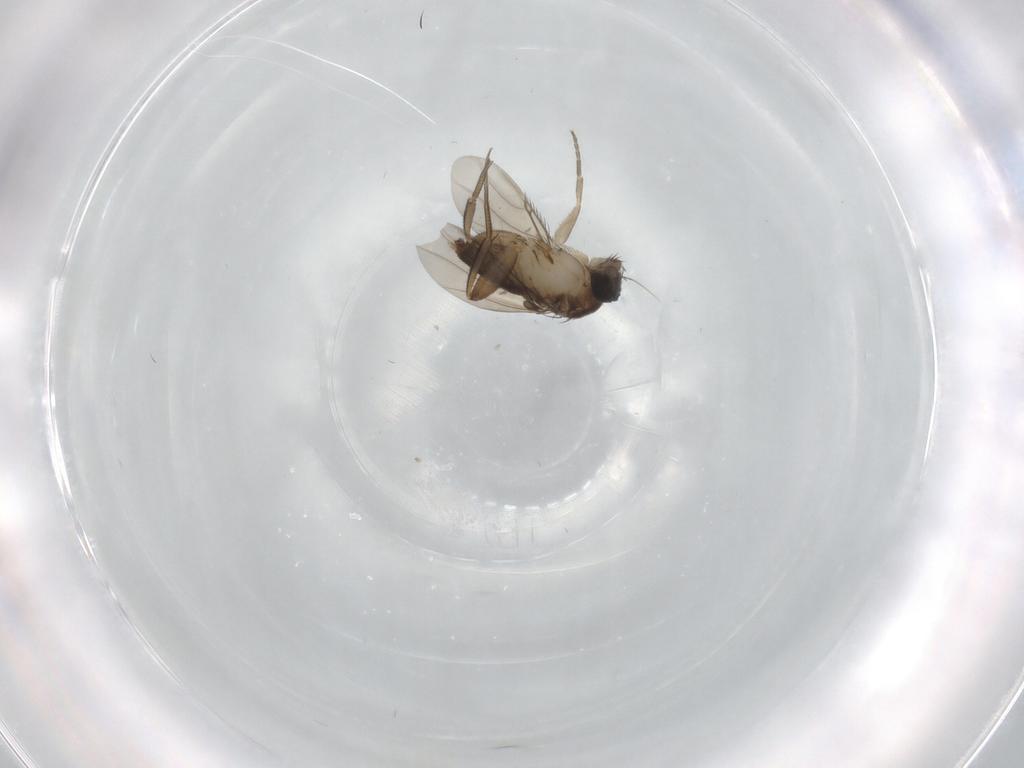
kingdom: Animalia
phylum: Arthropoda
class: Insecta
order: Diptera
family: Phoridae
